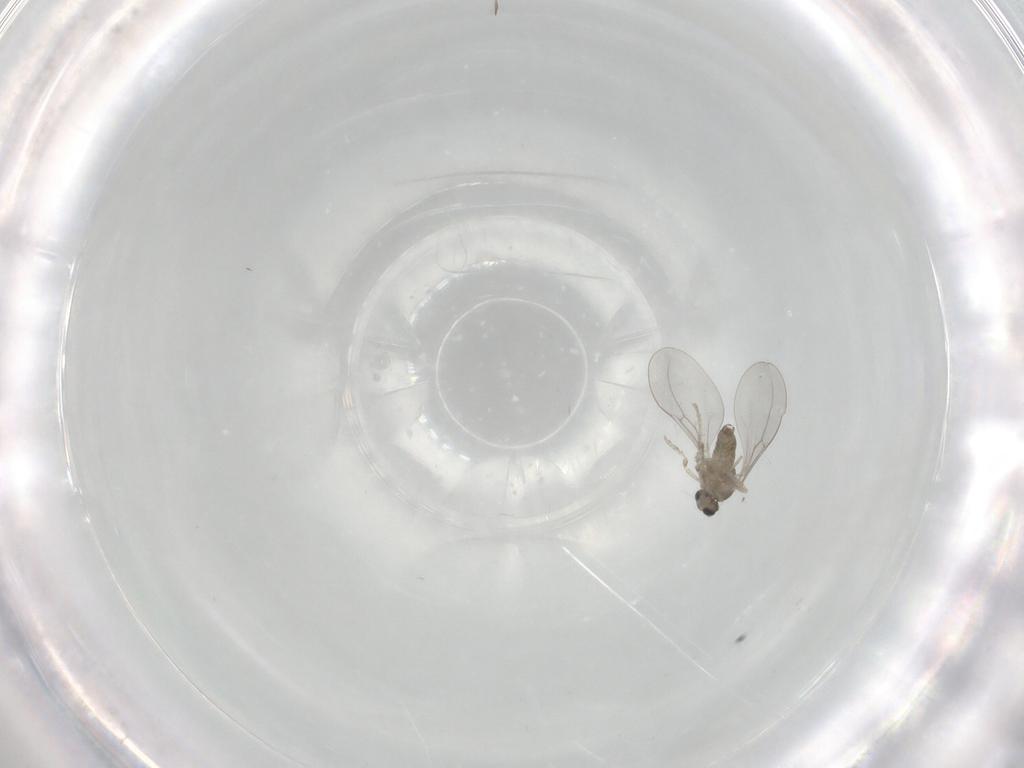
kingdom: Animalia
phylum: Arthropoda
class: Insecta
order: Diptera
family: Cecidomyiidae
